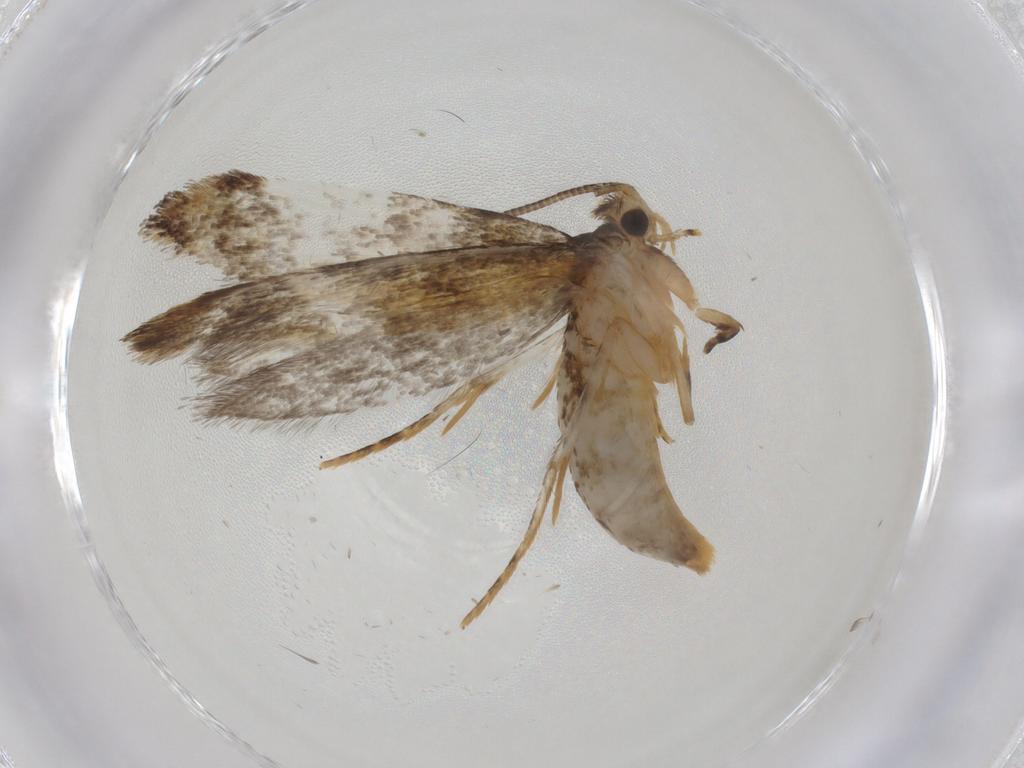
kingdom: Animalia
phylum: Arthropoda
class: Insecta
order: Lepidoptera
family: Tineidae
